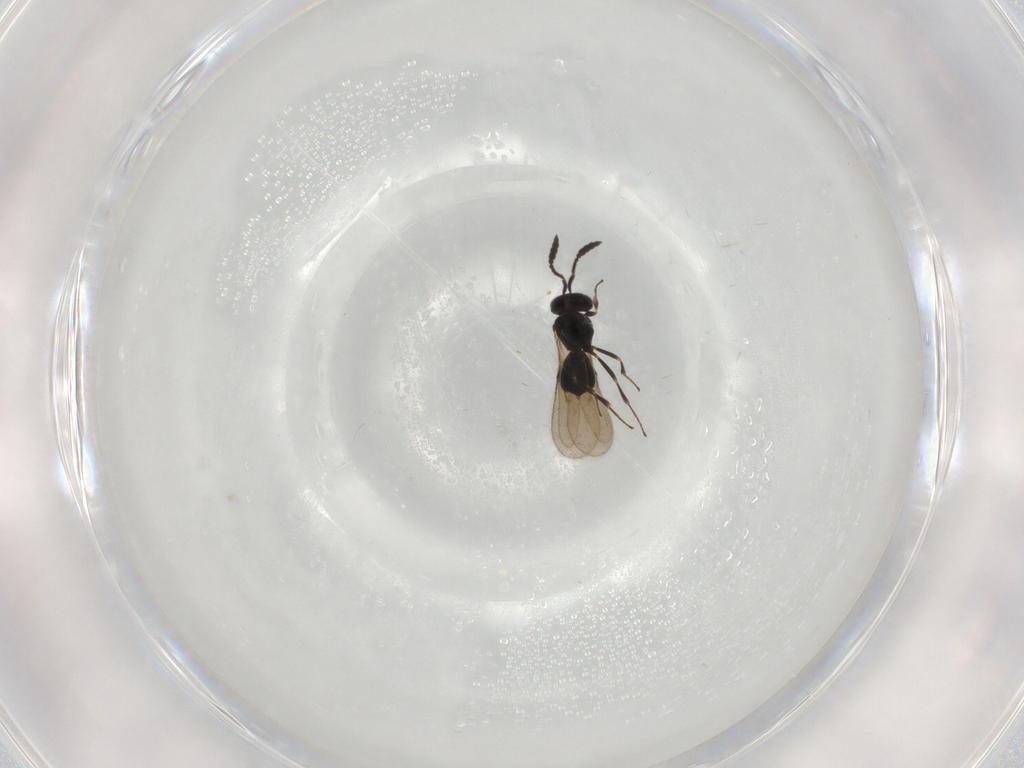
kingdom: Animalia
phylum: Arthropoda
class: Insecta
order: Hymenoptera
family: Scelionidae
